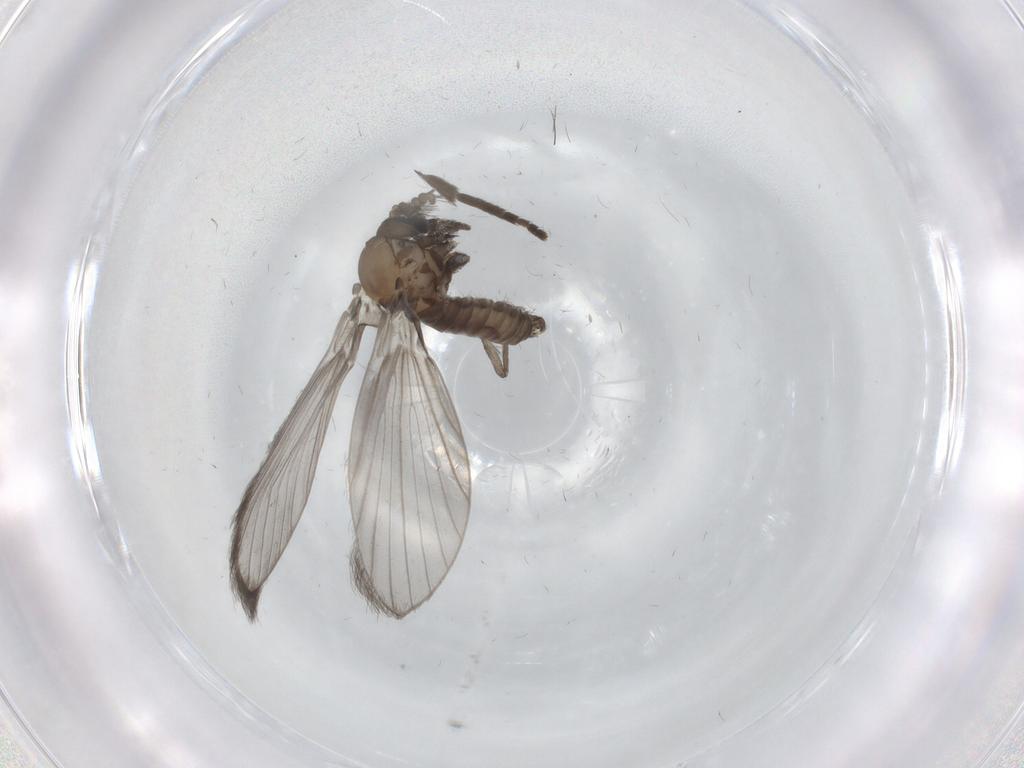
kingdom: Animalia
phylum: Arthropoda
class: Insecta
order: Diptera
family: Psychodidae
